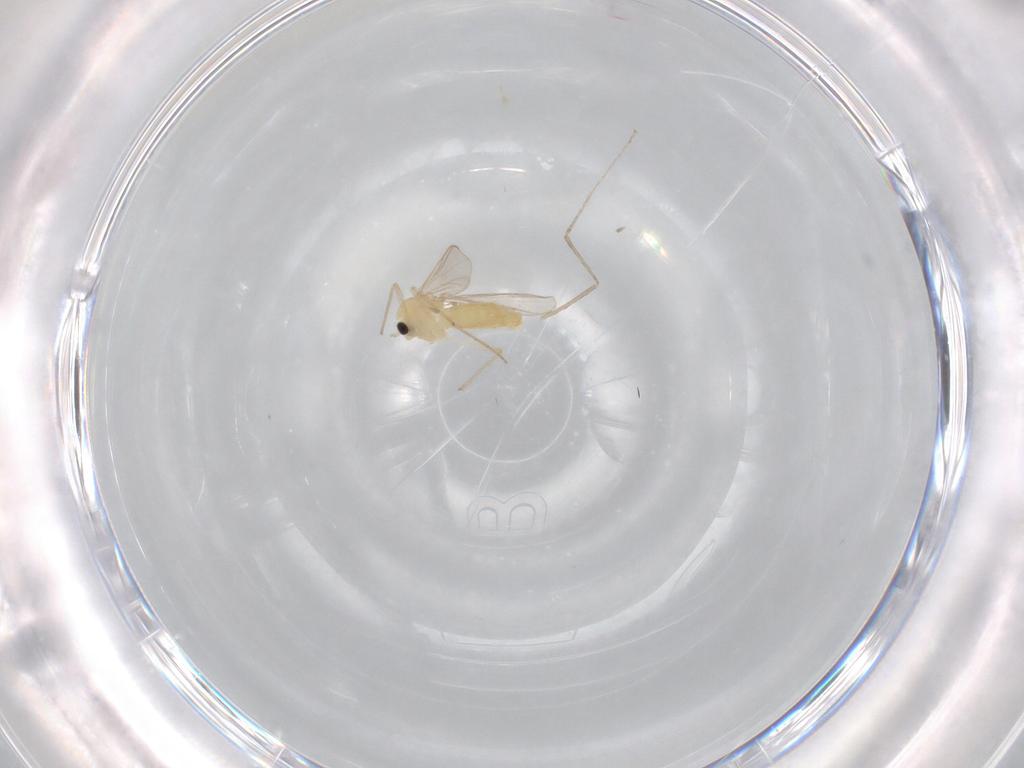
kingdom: Animalia
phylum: Arthropoda
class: Insecta
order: Diptera
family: Cecidomyiidae
